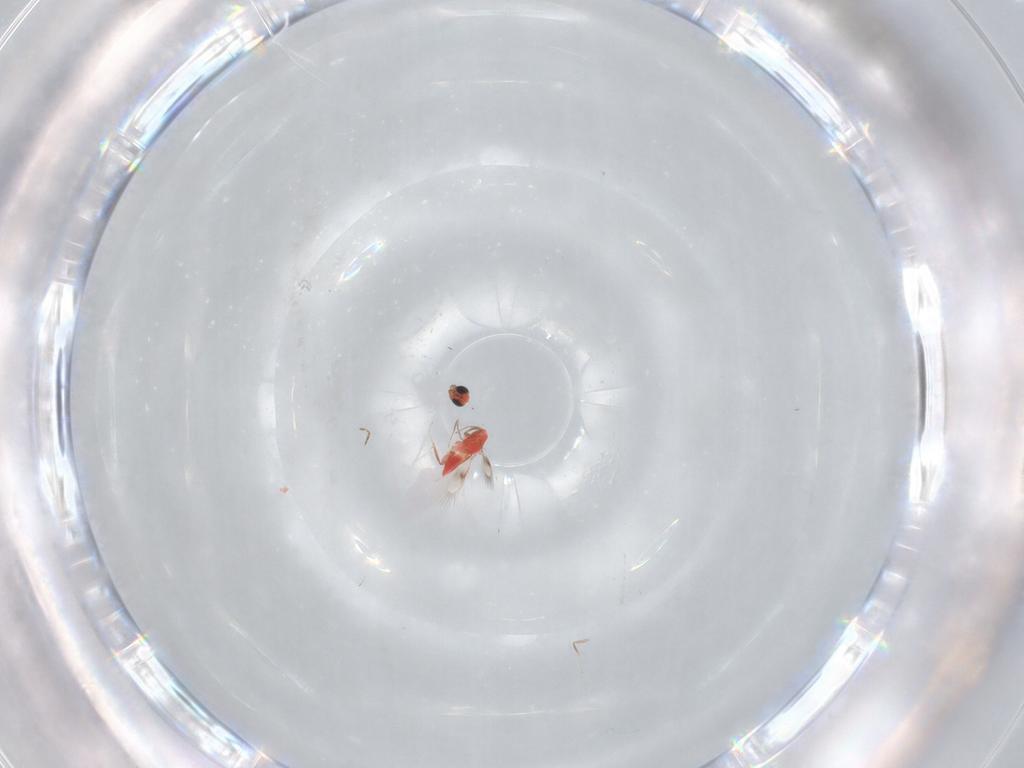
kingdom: Animalia
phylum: Arthropoda
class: Insecta
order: Hymenoptera
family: Trichogrammatidae
